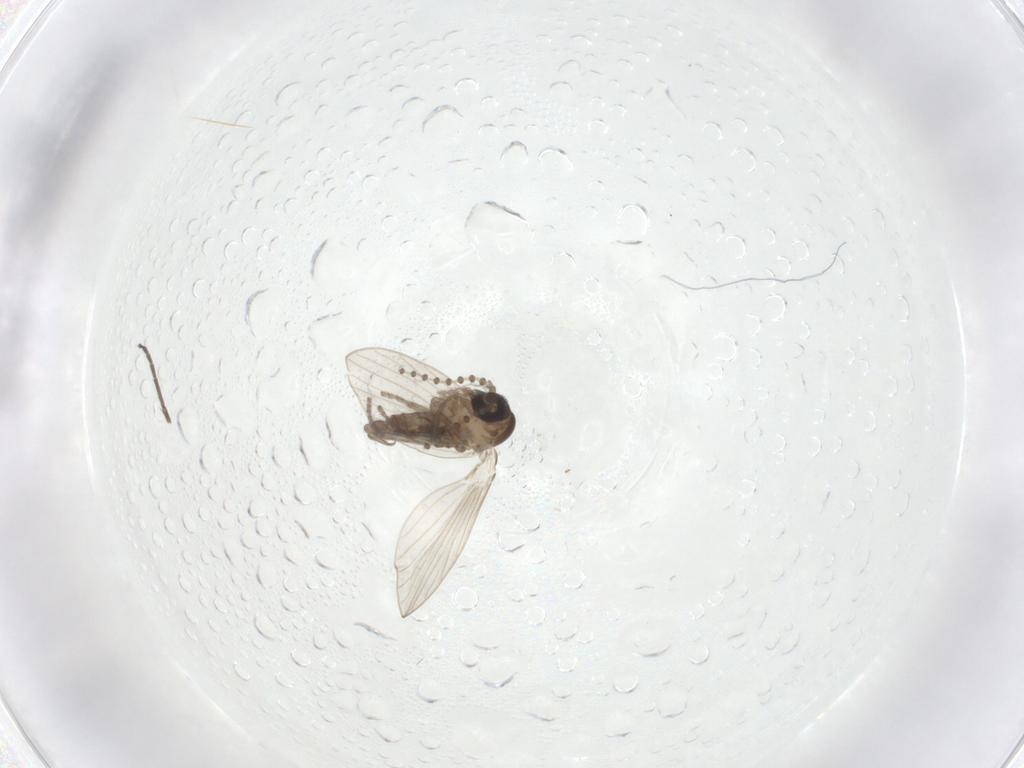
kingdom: Animalia
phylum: Arthropoda
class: Insecta
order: Diptera
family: Psychodidae
